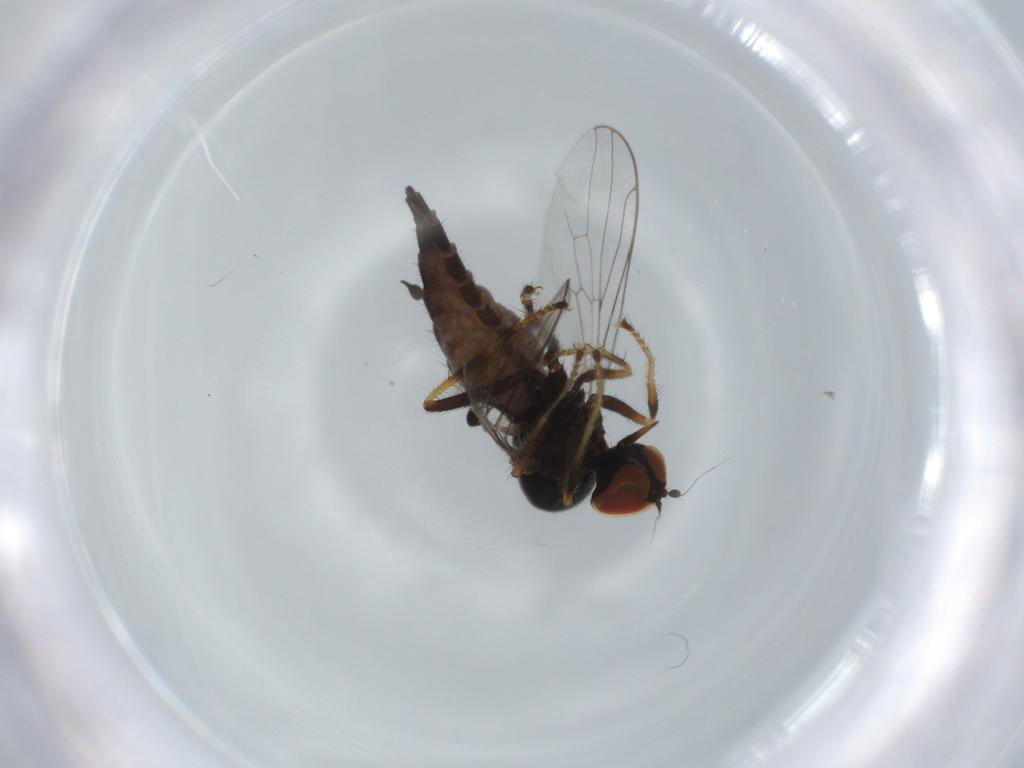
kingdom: Animalia
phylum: Arthropoda
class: Insecta
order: Diptera
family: Hybotidae
